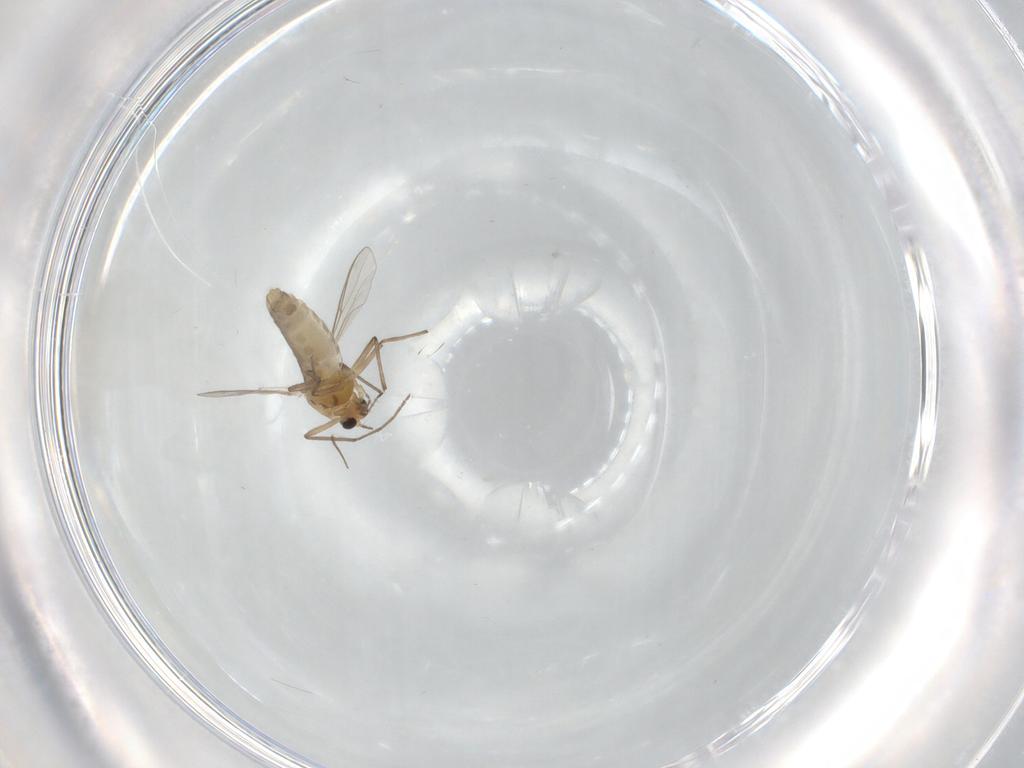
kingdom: Animalia
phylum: Arthropoda
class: Insecta
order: Diptera
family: Chironomidae
